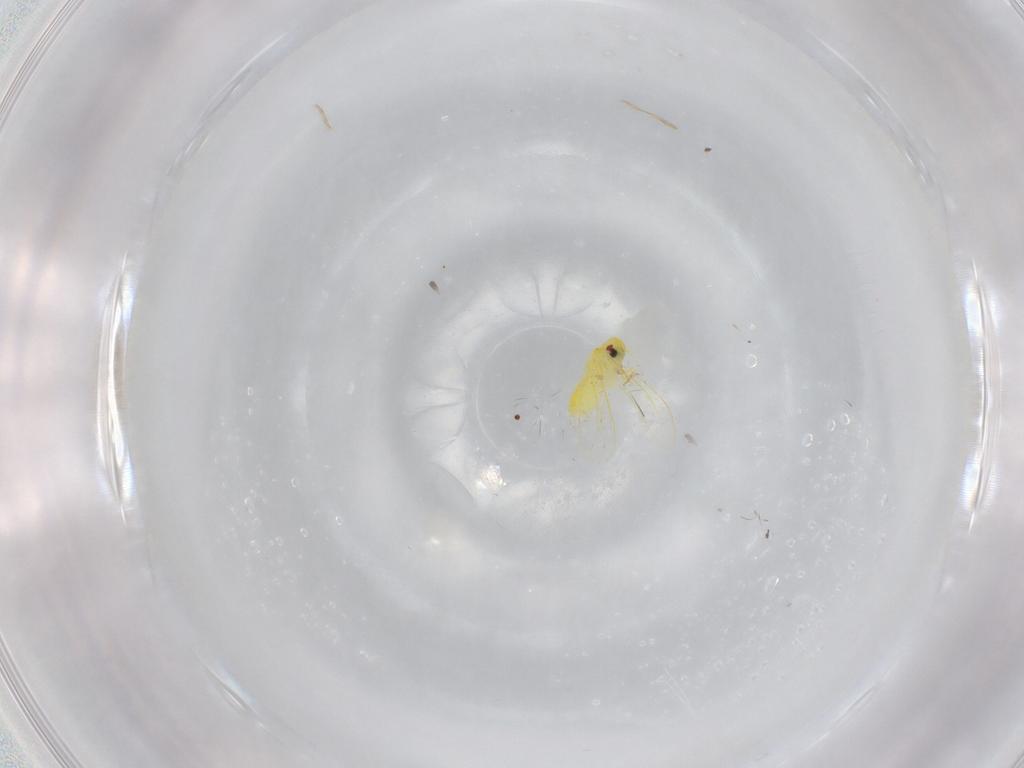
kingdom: Animalia
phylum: Arthropoda
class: Insecta
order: Hemiptera
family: Aleyrodidae
